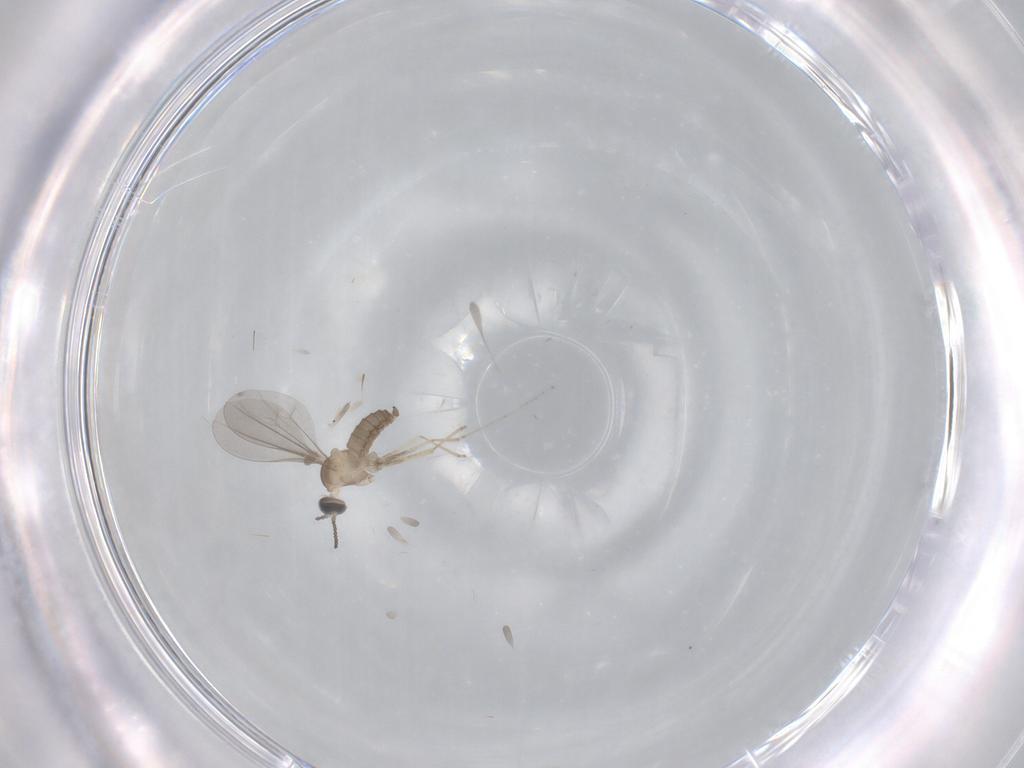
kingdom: Animalia
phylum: Arthropoda
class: Insecta
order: Diptera
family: Cecidomyiidae
